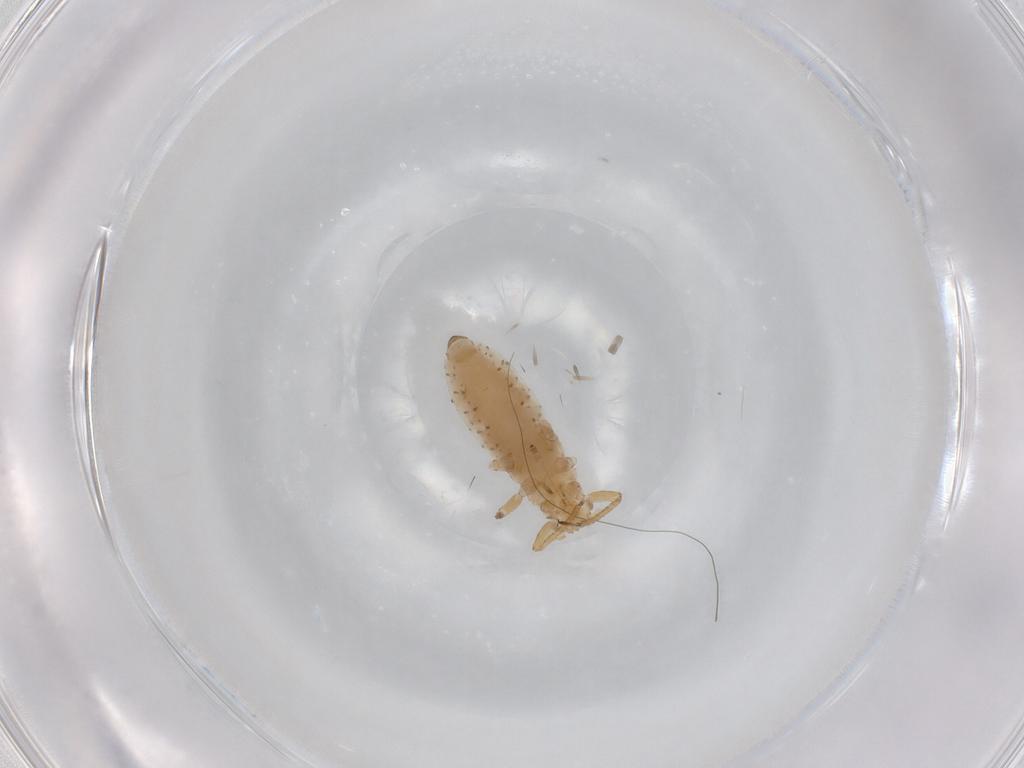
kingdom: Animalia
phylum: Arthropoda
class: Insecta
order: Hemiptera
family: Aphididae
